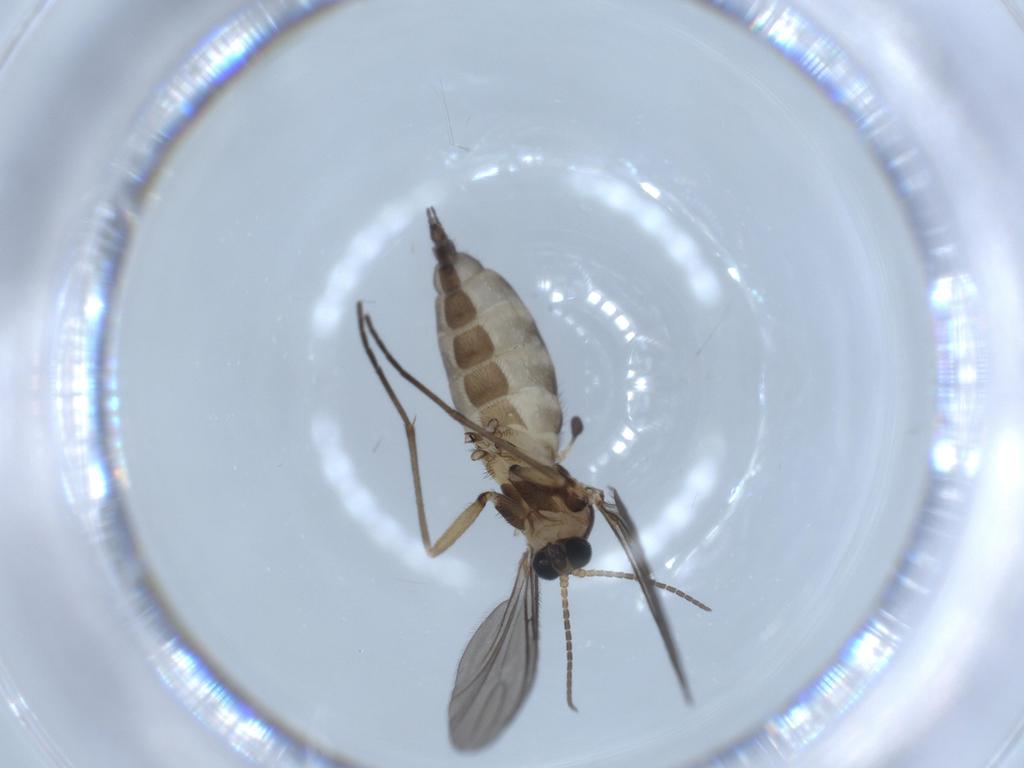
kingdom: Animalia
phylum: Arthropoda
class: Insecta
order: Diptera
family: Sciaridae
